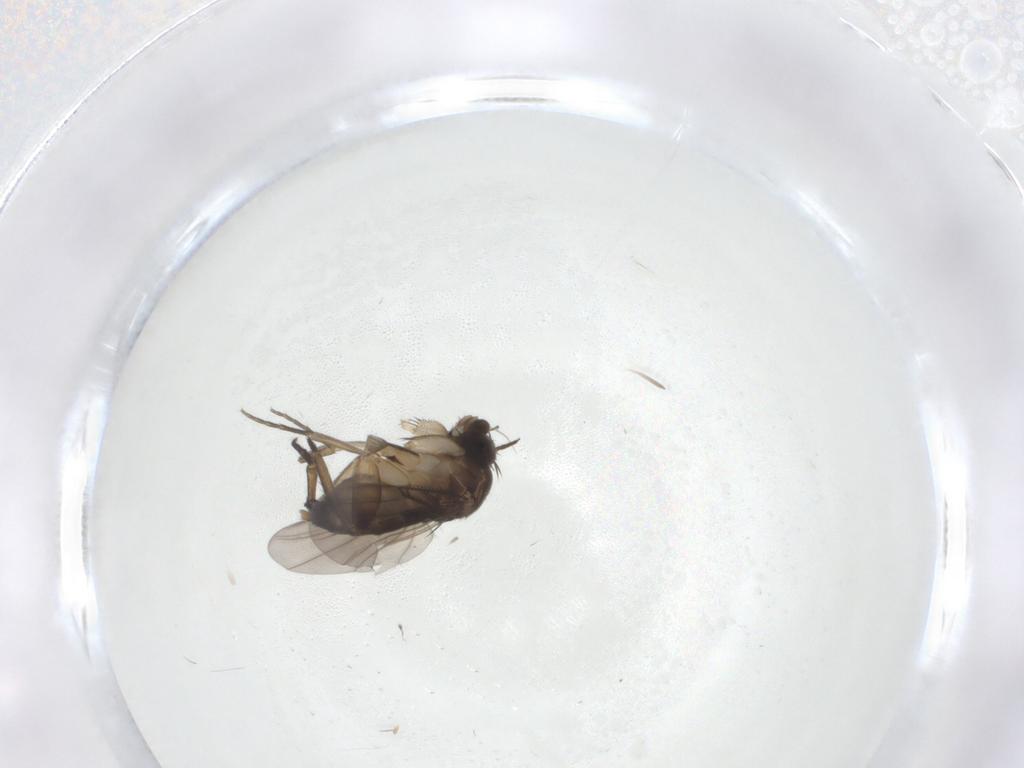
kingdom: Animalia
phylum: Arthropoda
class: Insecta
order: Diptera
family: Phoridae
